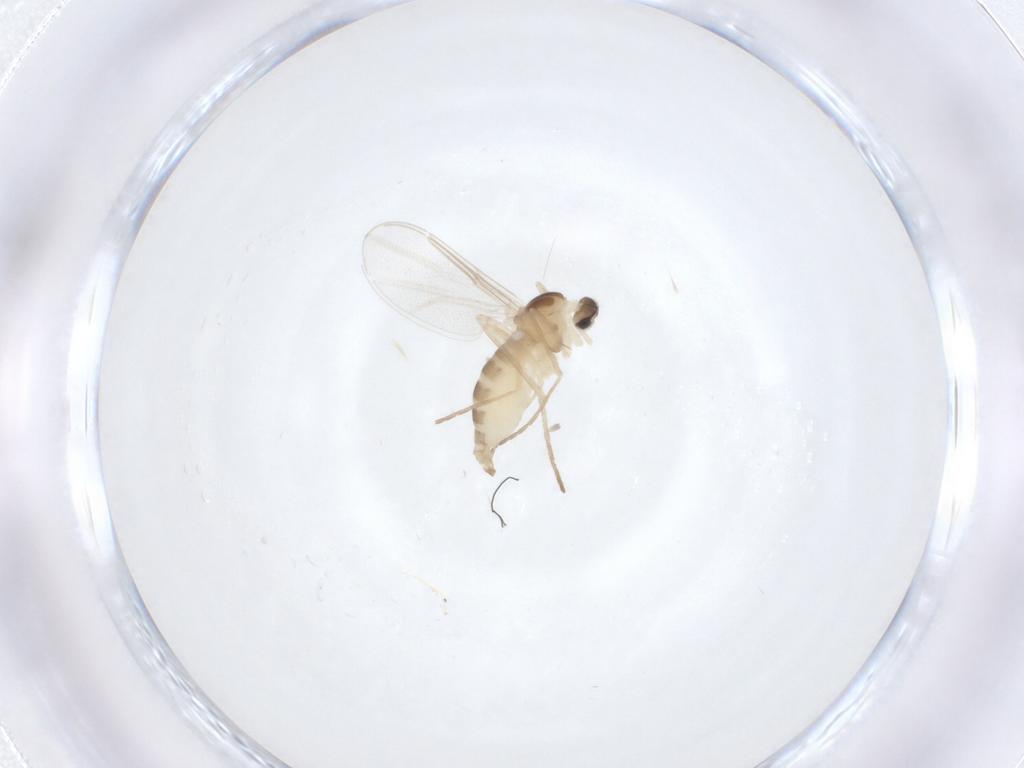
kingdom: Animalia
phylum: Arthropoda
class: Insecta
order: Diptera
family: Cecidomyiidae
